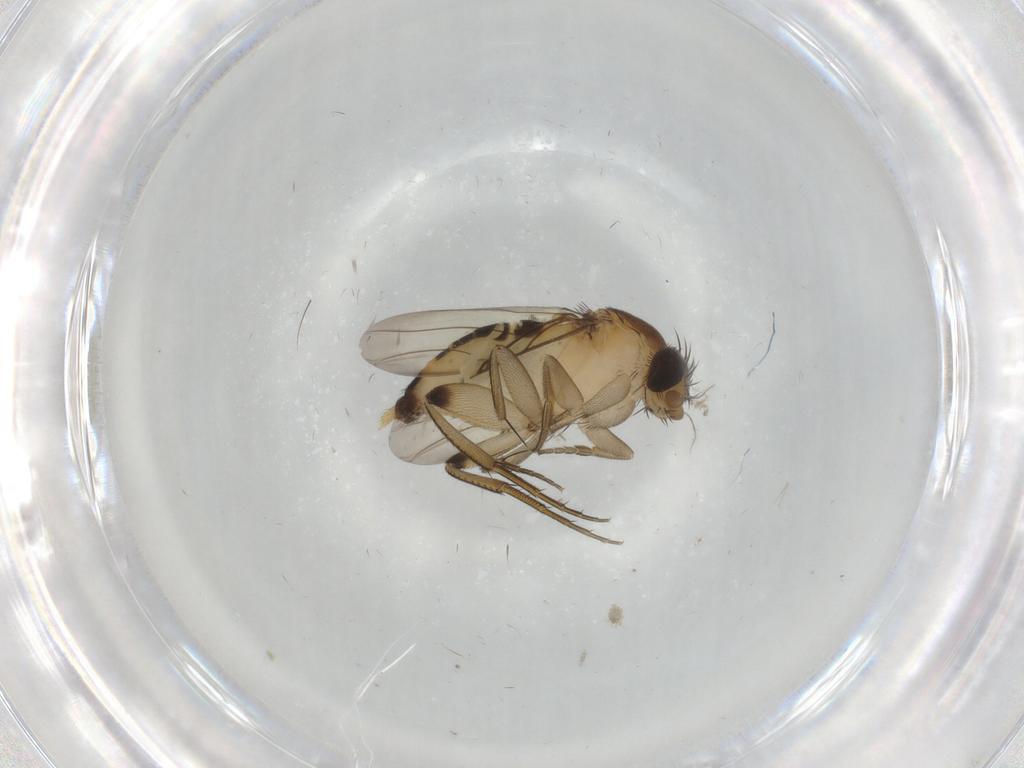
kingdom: Animalia
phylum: Arthropoda
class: Insecta
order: Diptera
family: Phoridae
